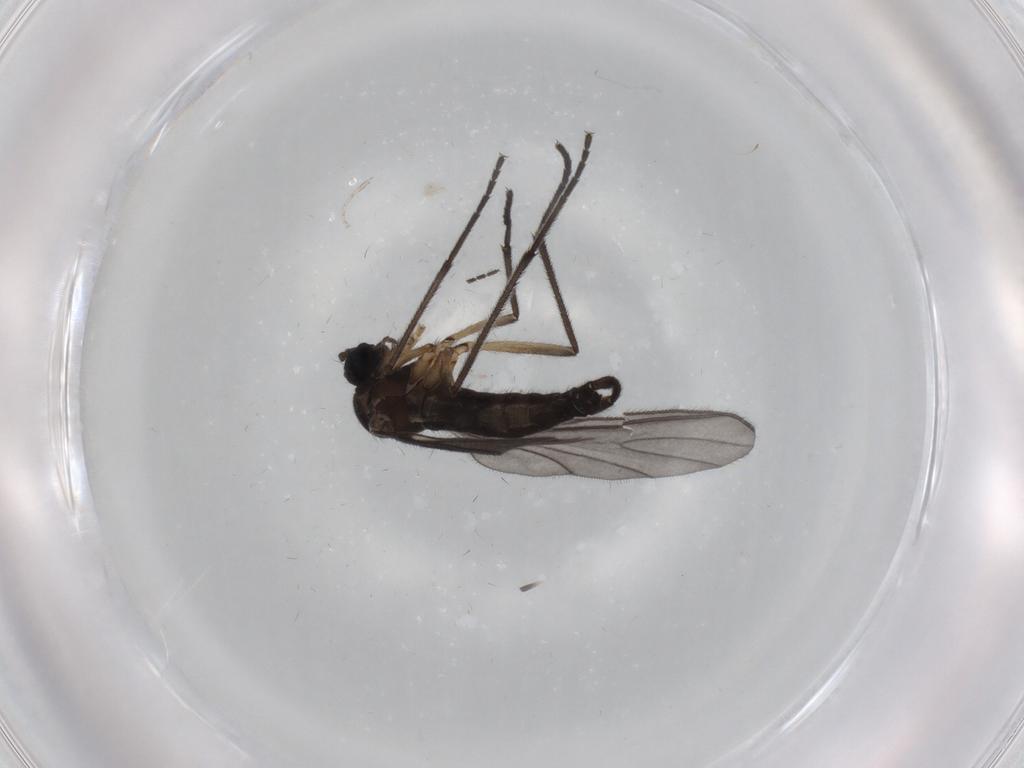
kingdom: Animalia
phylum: Arthropoda
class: Insecta
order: Diptera
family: Sciaridae
